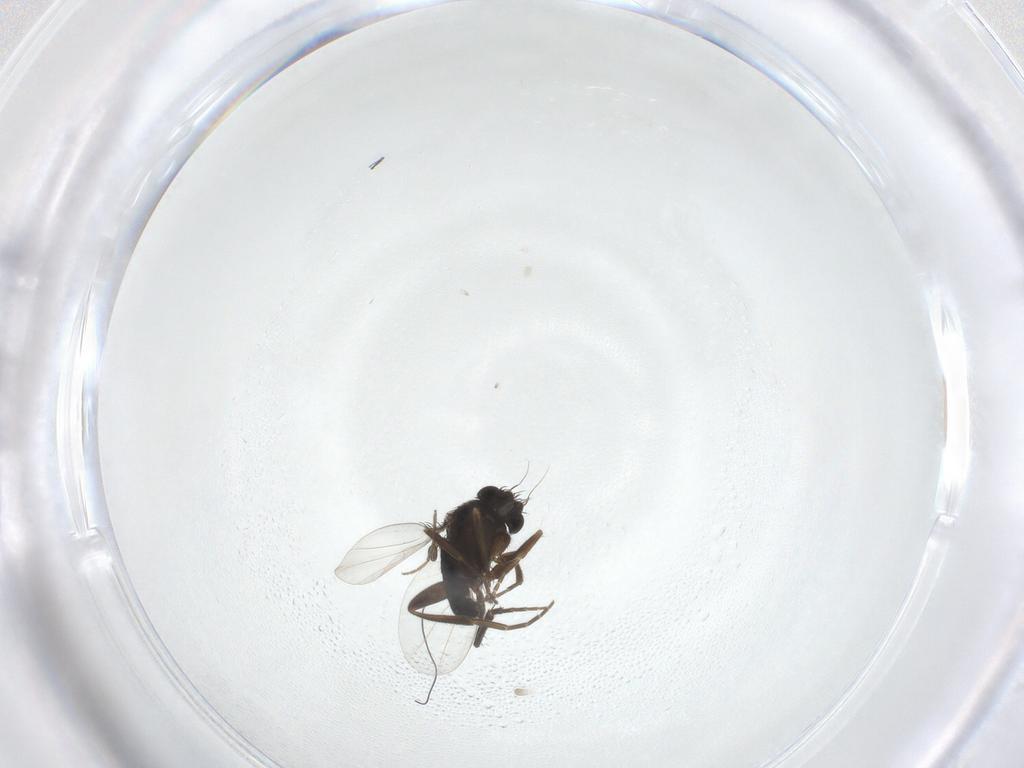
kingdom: Animalia
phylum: Arthropoda
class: Insecta
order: Diptera
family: Phoridae
